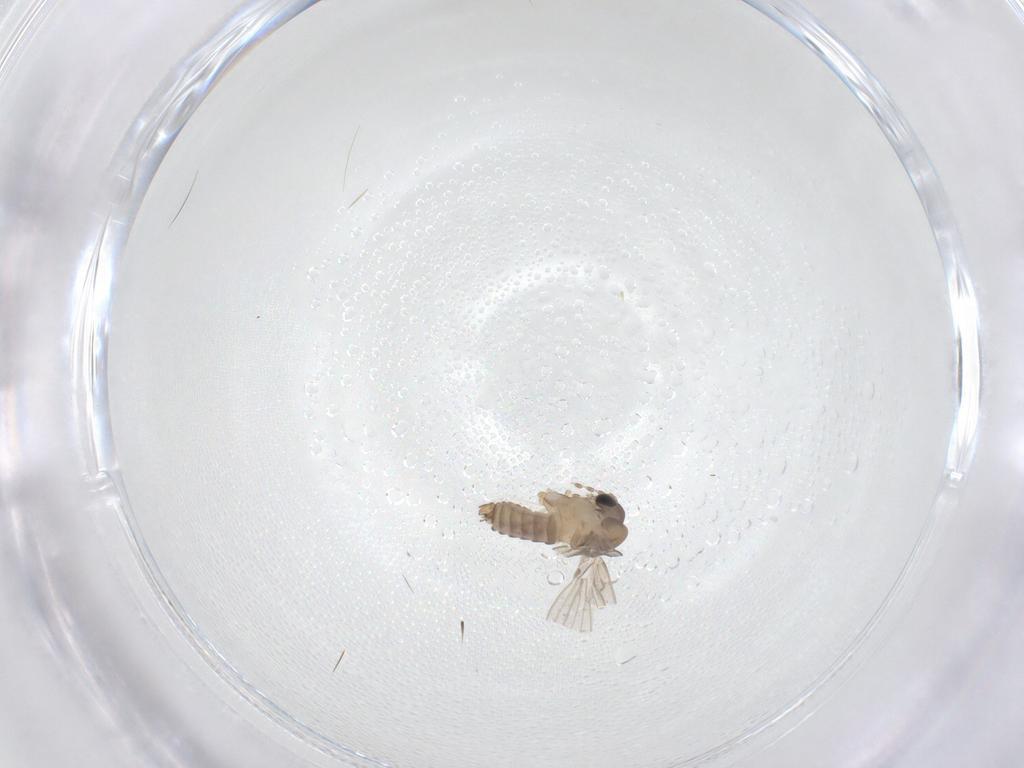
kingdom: Animalia
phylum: Arthropoda
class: Insecta
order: Diptera
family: Psychodidae
